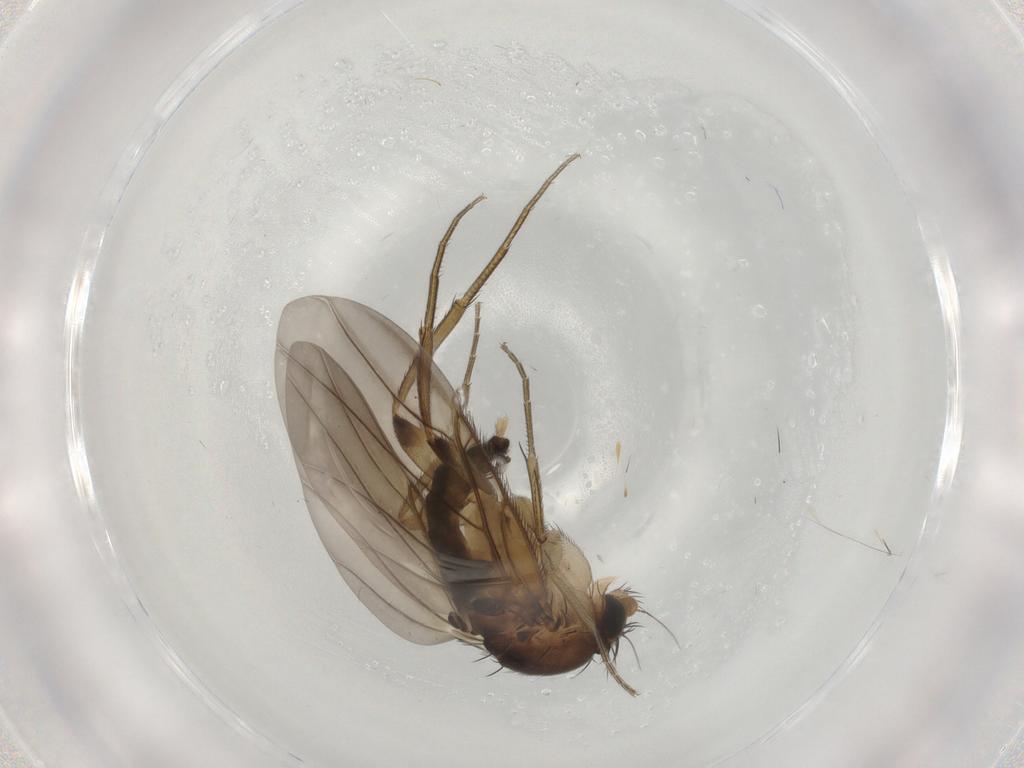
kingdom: Animalia
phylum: Arthropoda
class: Insecta
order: Diptera
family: Phoridae
